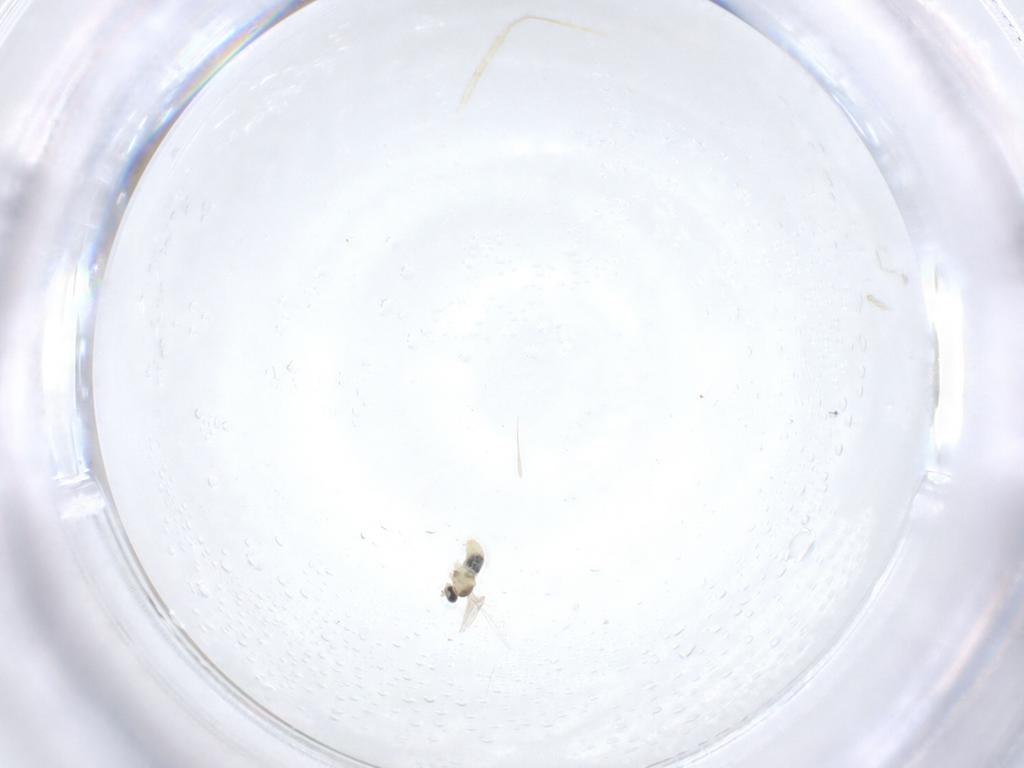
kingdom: Animalia
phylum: Arthropoda
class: Insecta
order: Diptera
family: Cecidomyiidae
